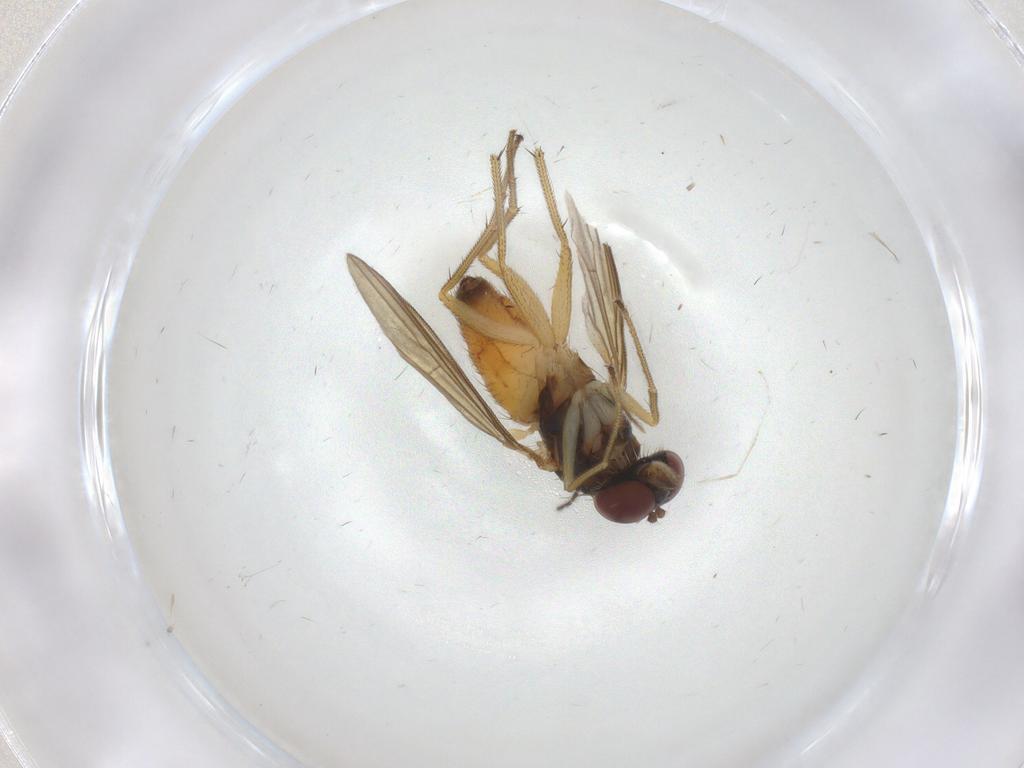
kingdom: Animalia
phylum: Arthropoda
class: Insecta
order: Diptera
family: Dolichopodidae
